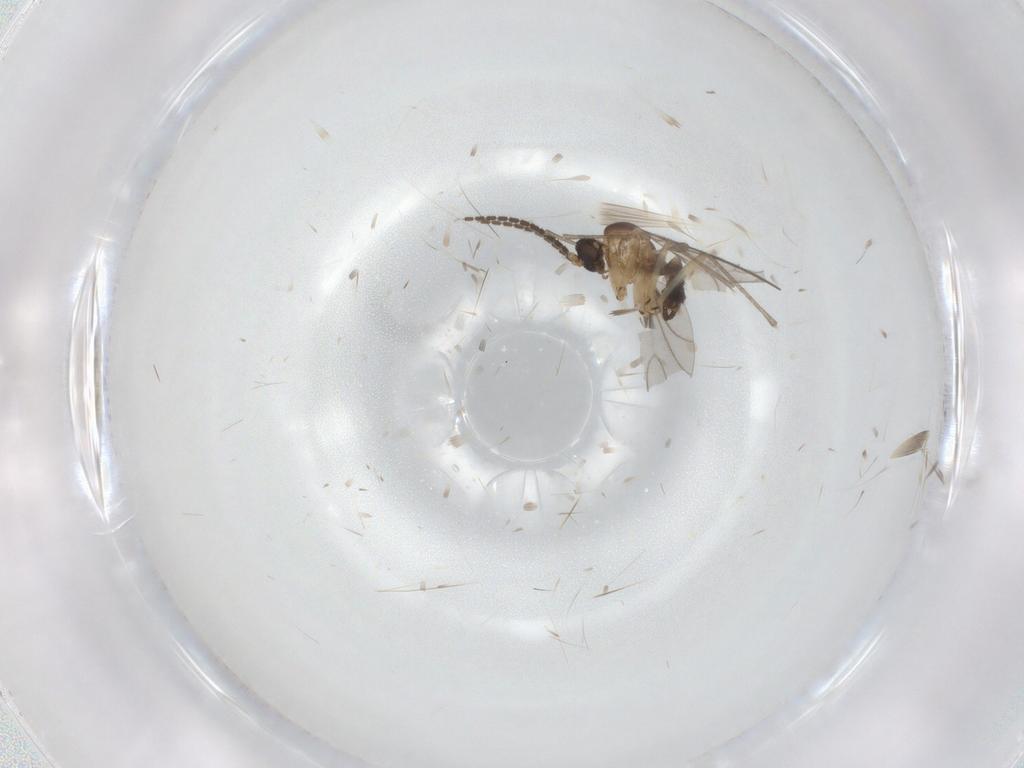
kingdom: Animalia
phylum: Arthropoda
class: Insecta
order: Diptera
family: Sciaridae
